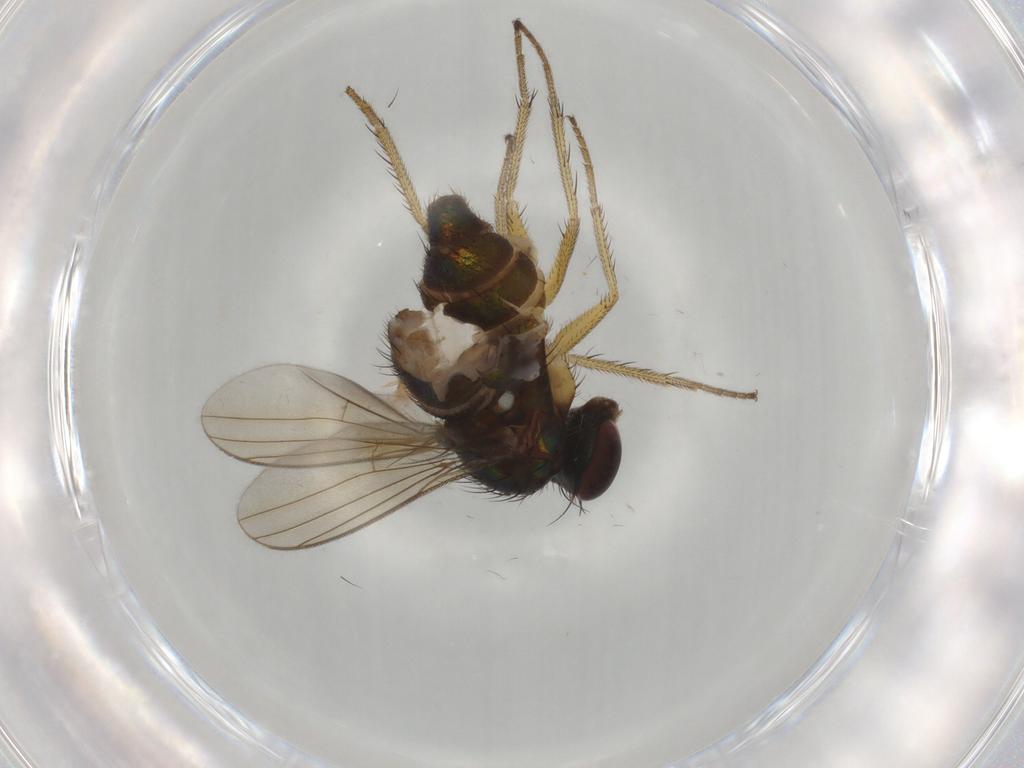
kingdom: Animalia
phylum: Arthropoda
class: Insecta
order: Diptera
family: Dolichopodidae
